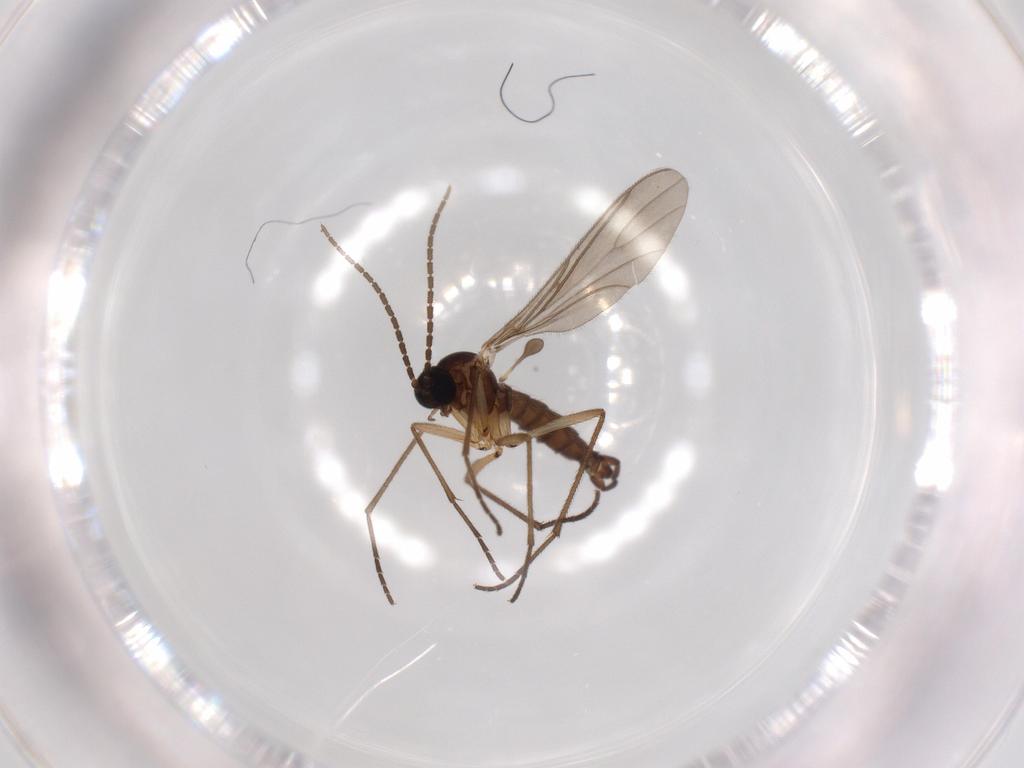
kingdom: Animalia
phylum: Arthropoda
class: Insecta
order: Diptera
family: Sciaridae
